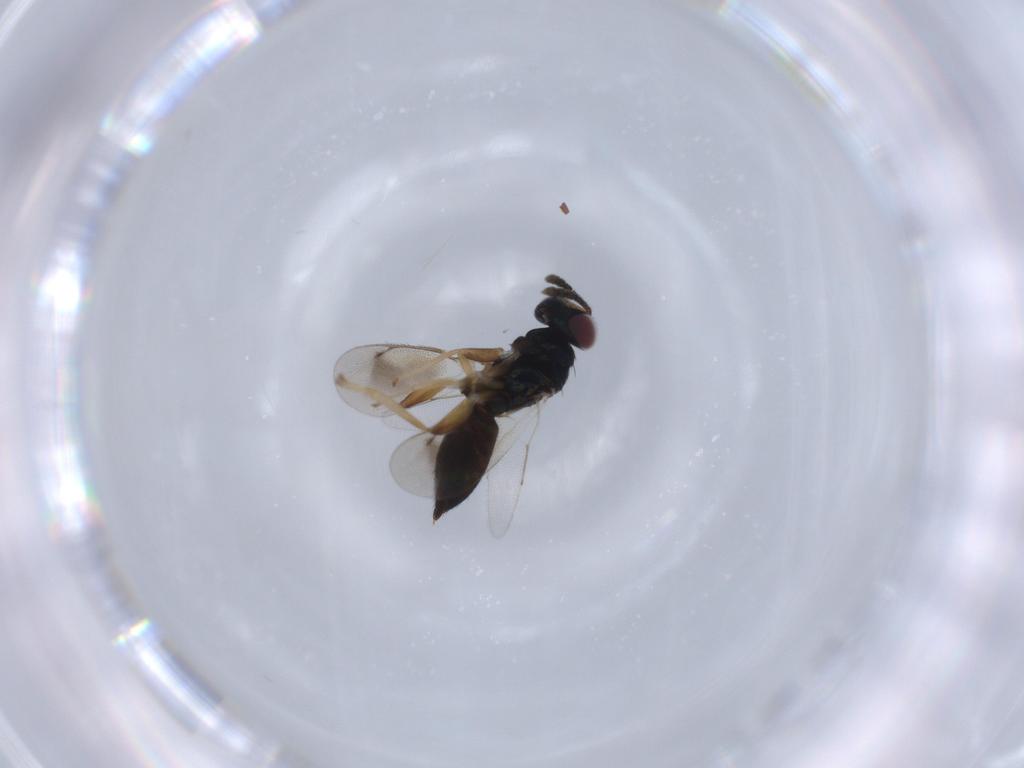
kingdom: Animalia
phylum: Arthropoda
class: Insecta
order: Hymenoptera
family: Eulophidae
